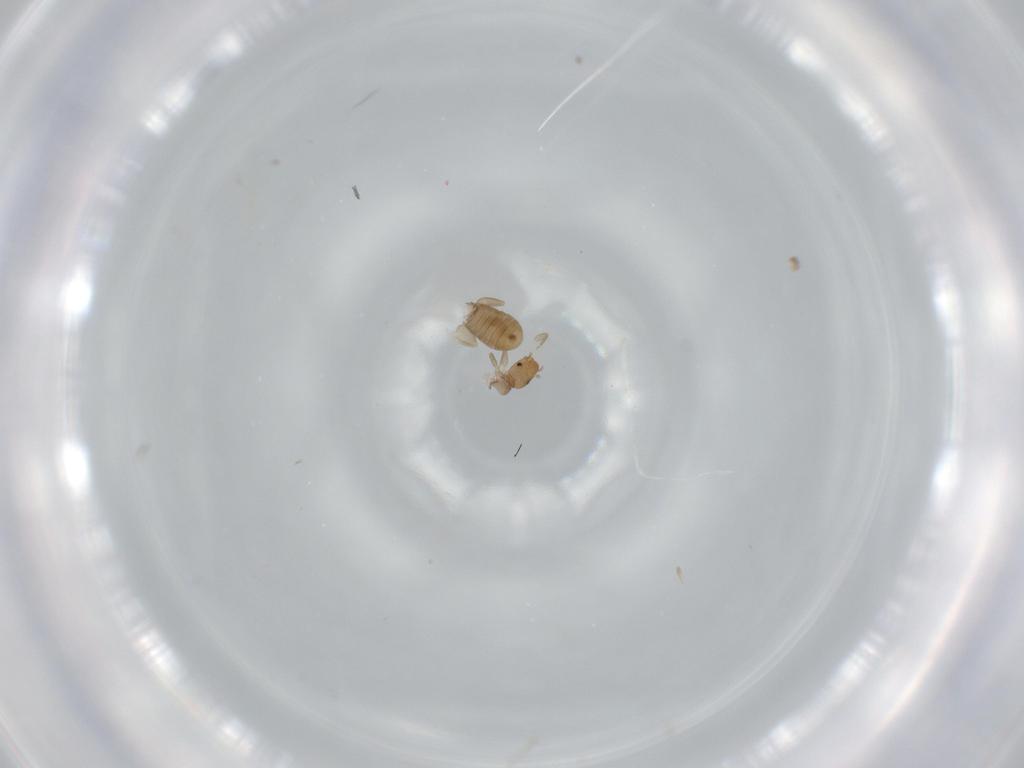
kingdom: Animalia
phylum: Arthropoda
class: Insecta
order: Psocodea
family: Liposcelididae
